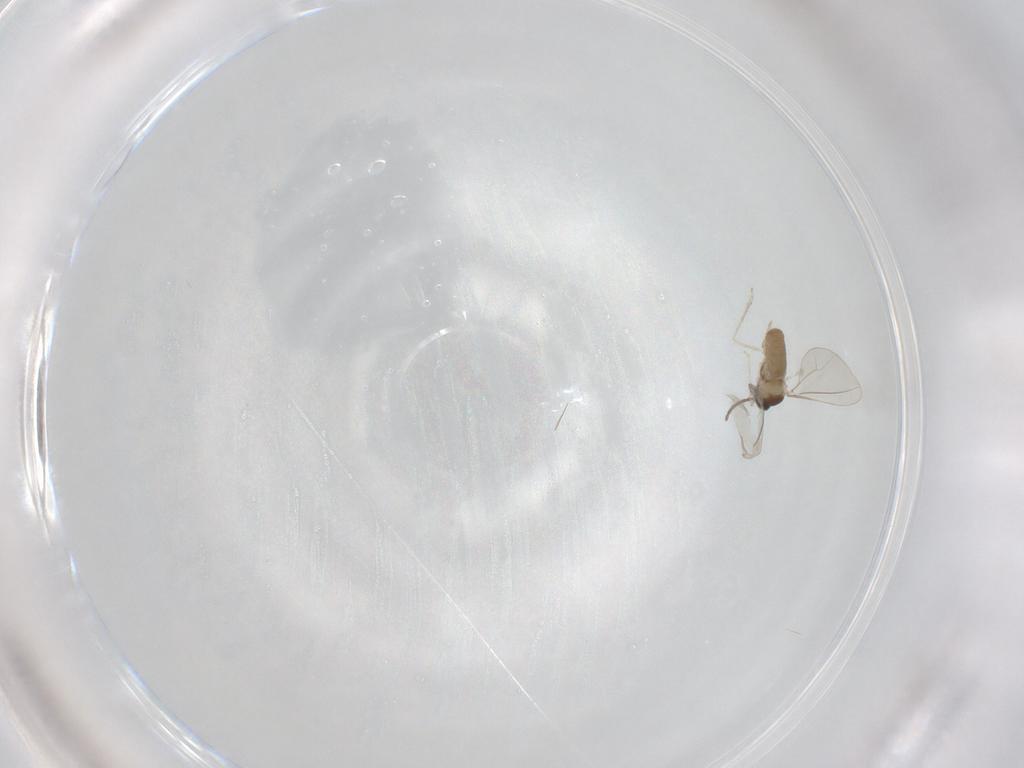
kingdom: Animalia
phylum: Arthropoda
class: Insecta
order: Diptera
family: Cecidomyiidae
